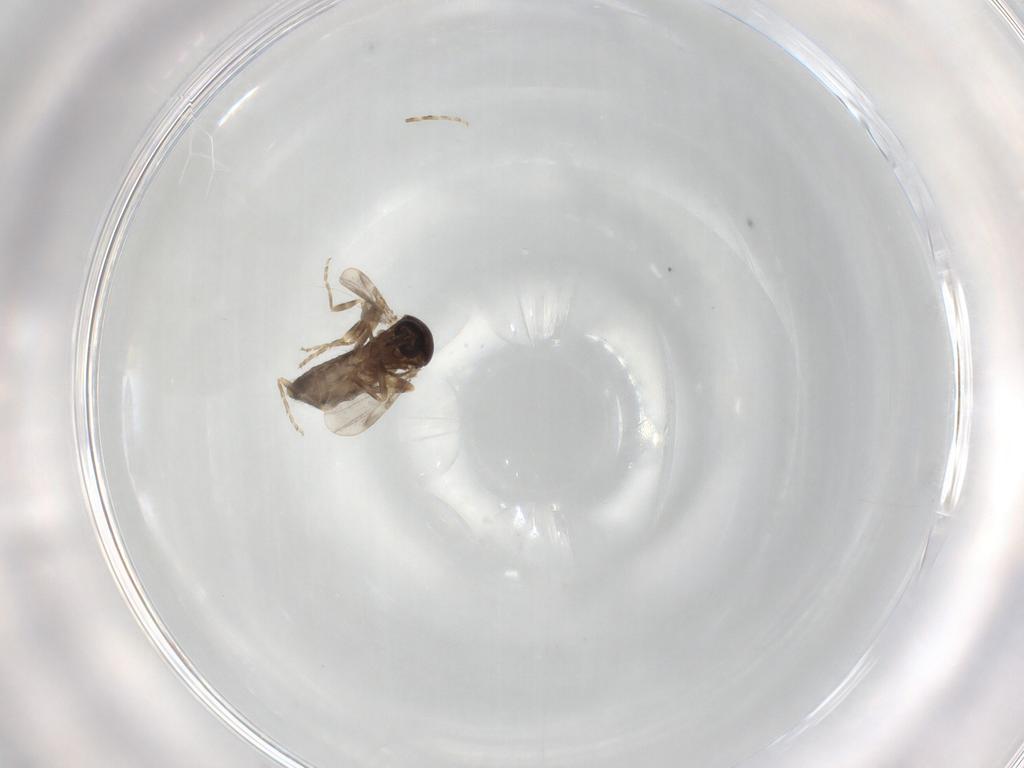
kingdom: Animalia
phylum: Arthropoda
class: Insecta
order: Diptera
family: Ceratopogonidae
